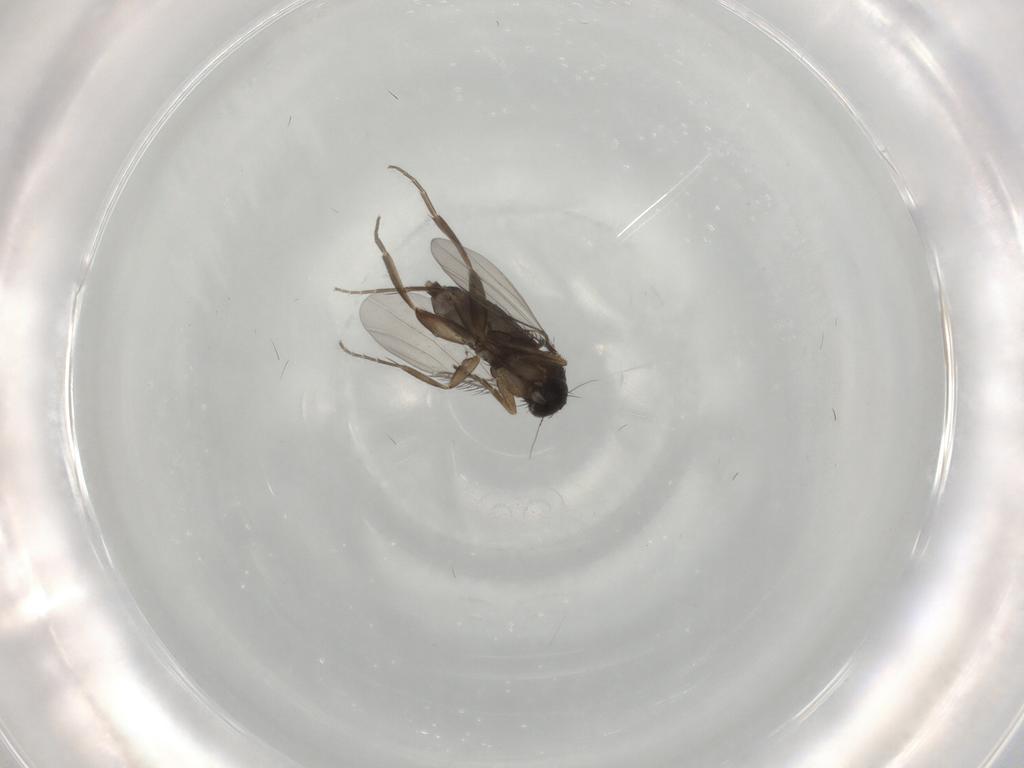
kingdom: Animalia
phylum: Arthropoda
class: Insecta
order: Diptera
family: Phoridae
